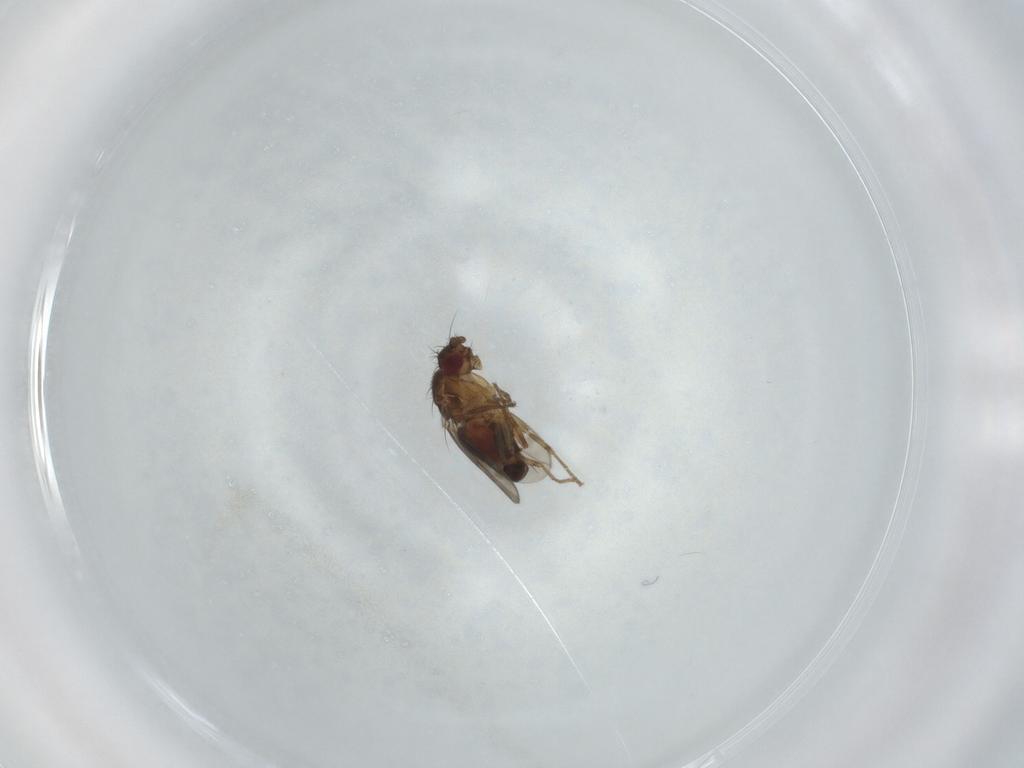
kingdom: Animalia
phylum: Arthropoda
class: Insecta
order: Diptera
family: Sphaeroceridae
